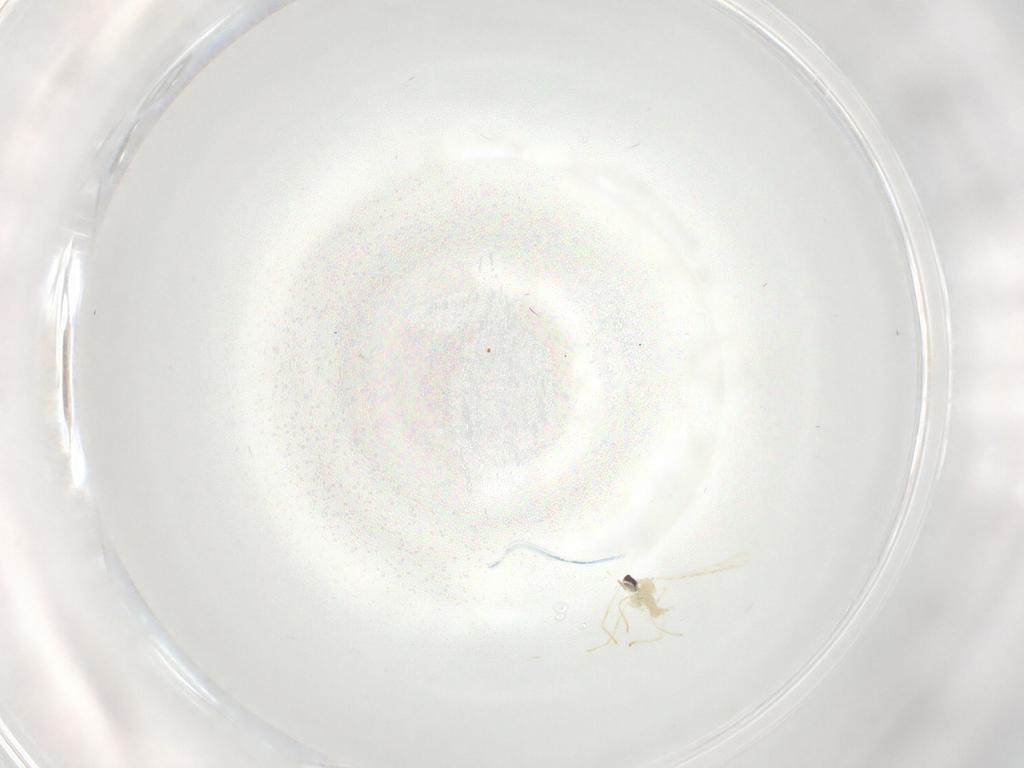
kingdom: Animalia
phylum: Arthropoda
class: Insecta
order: Diptera
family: Cecidomyiidae
